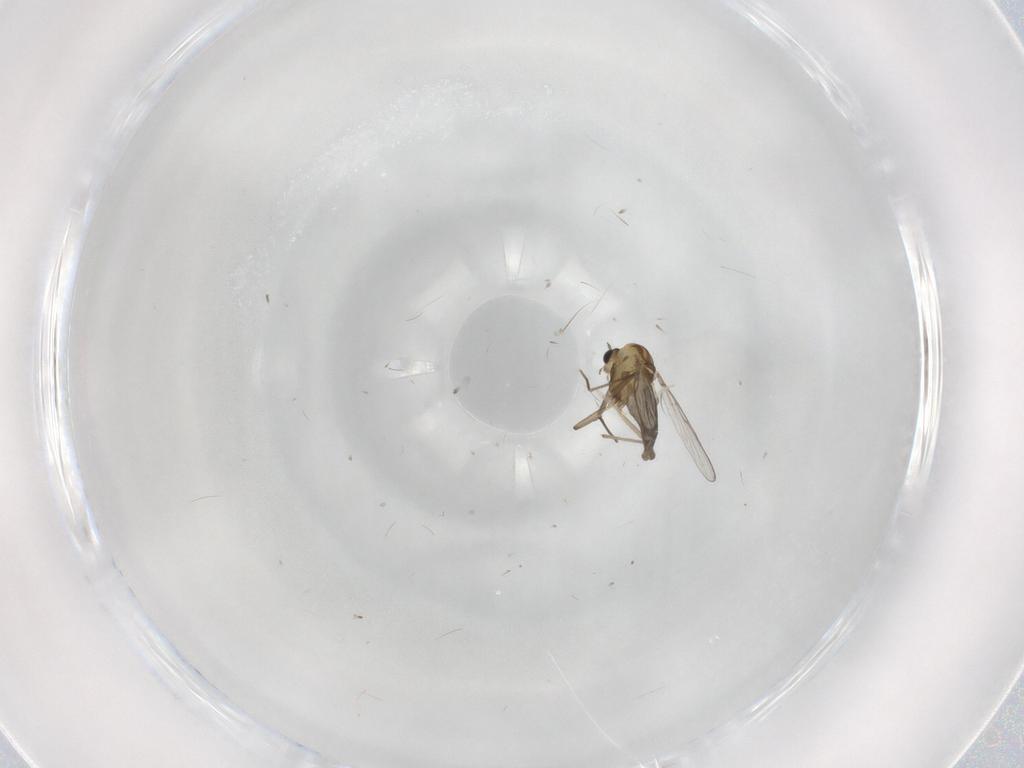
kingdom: Animalia
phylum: Arthropoda
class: Insecta
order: Diptera
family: Chironomidae
